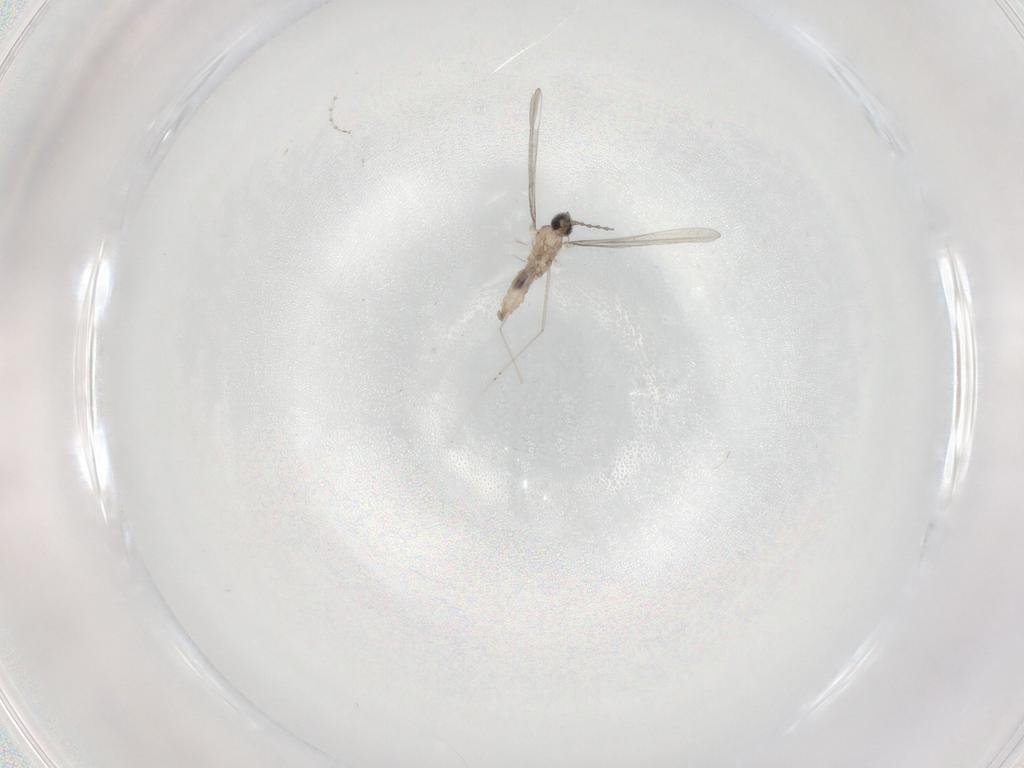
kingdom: Animalia
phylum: Arthropoda
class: Insecta
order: Diptera
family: Cecidomyiidae
